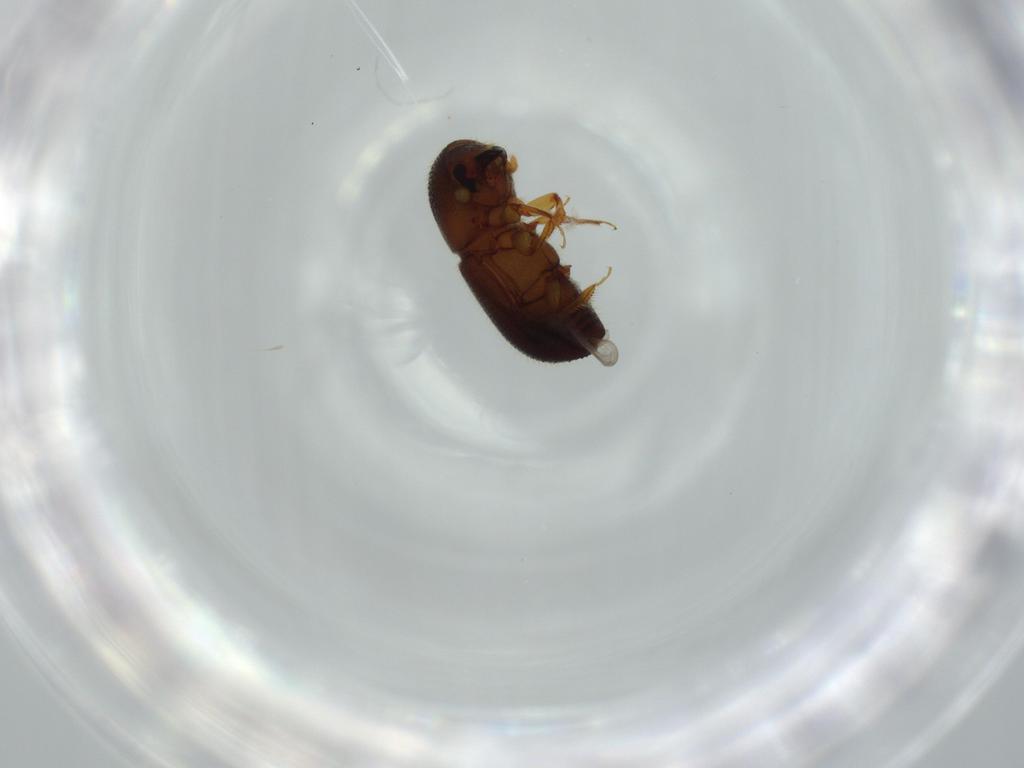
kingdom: Animalia
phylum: Arthropoda
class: Insecta
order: Coleoptera
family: Curculionidae
